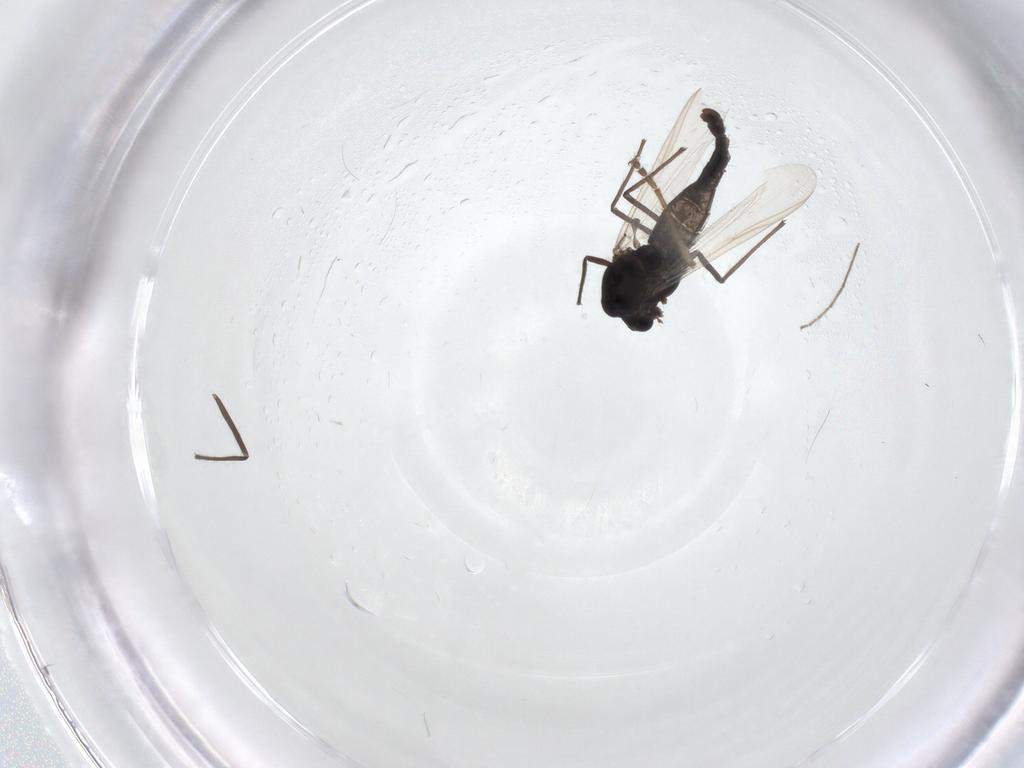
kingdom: Animalia
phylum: Arthropoda
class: Insecta
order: Diptera
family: Hybotidae
